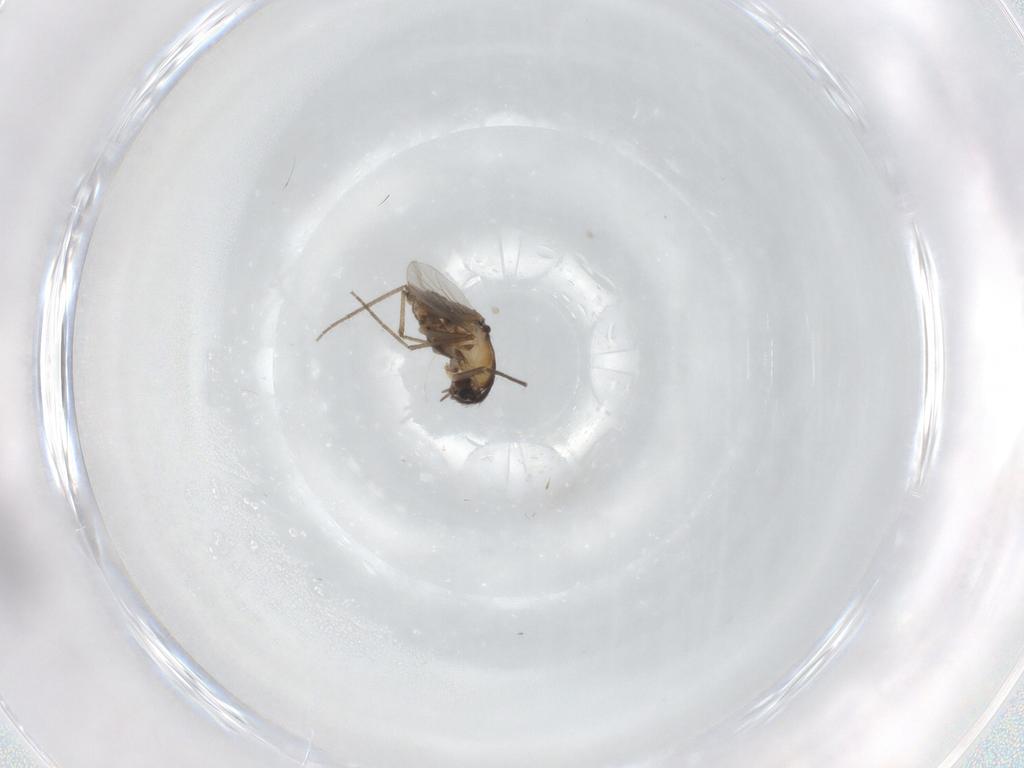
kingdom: Animalia
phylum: Arthropoda
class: Insecta
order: Diptera
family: Chironomidae
